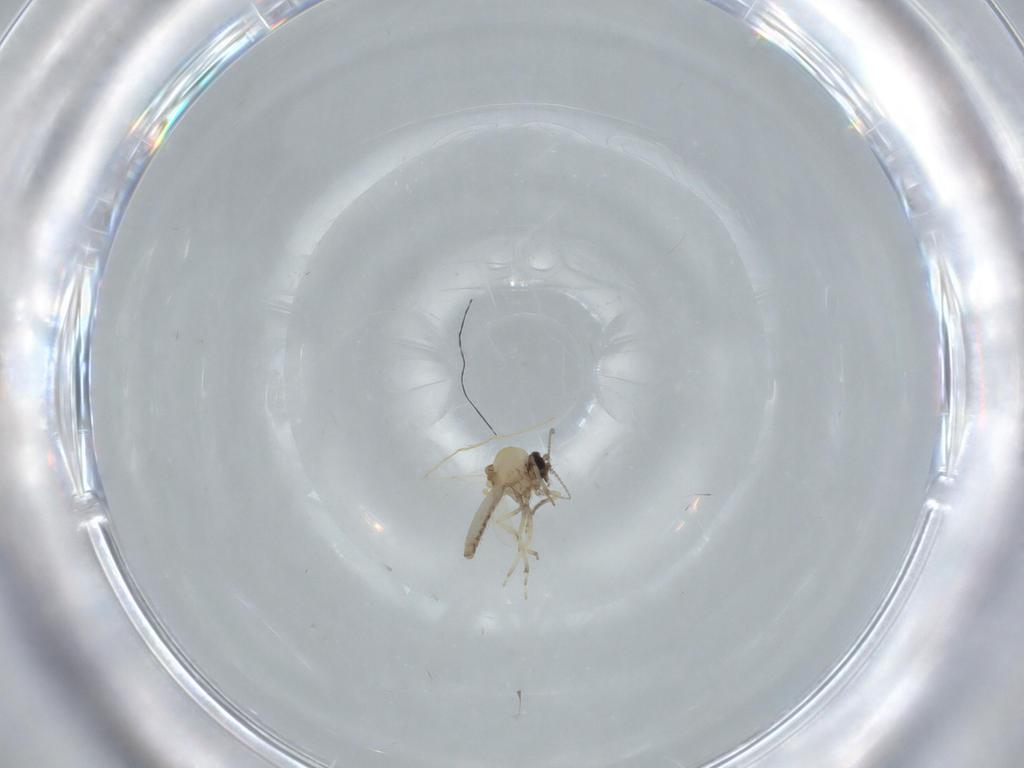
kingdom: Animalia
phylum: Arthropoda
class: Insecta
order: Diptera
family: Ceratopogonidae
